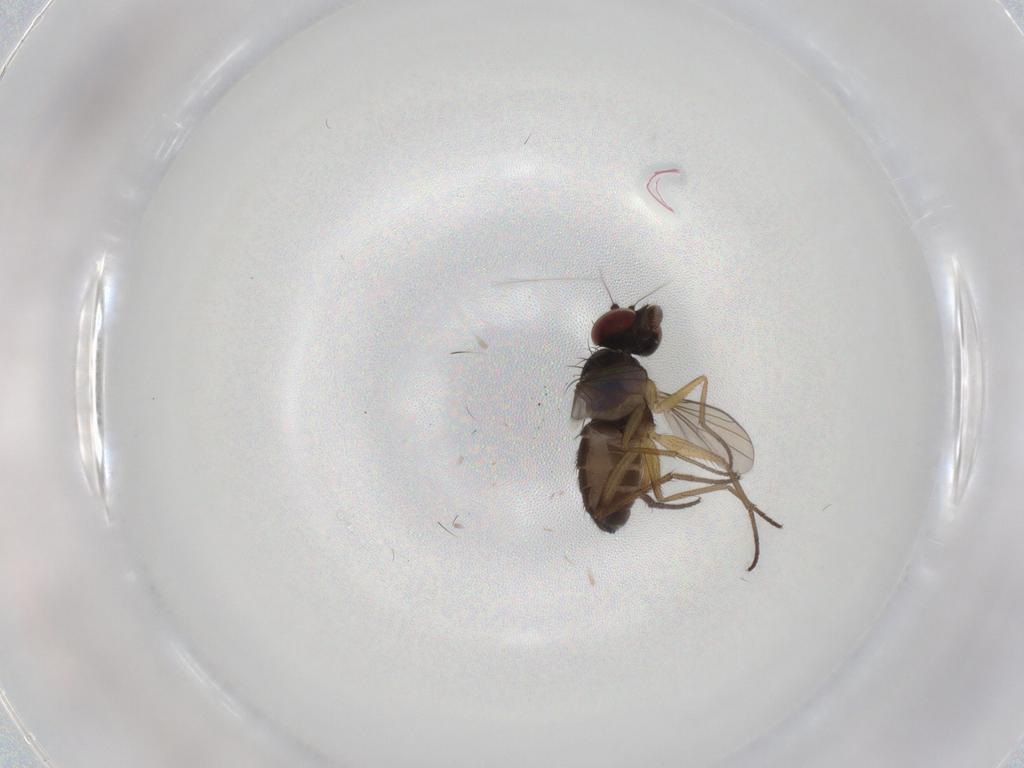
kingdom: Animalia
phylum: Arthropoda
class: Insecta
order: Diptera
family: Dolichopodidae
